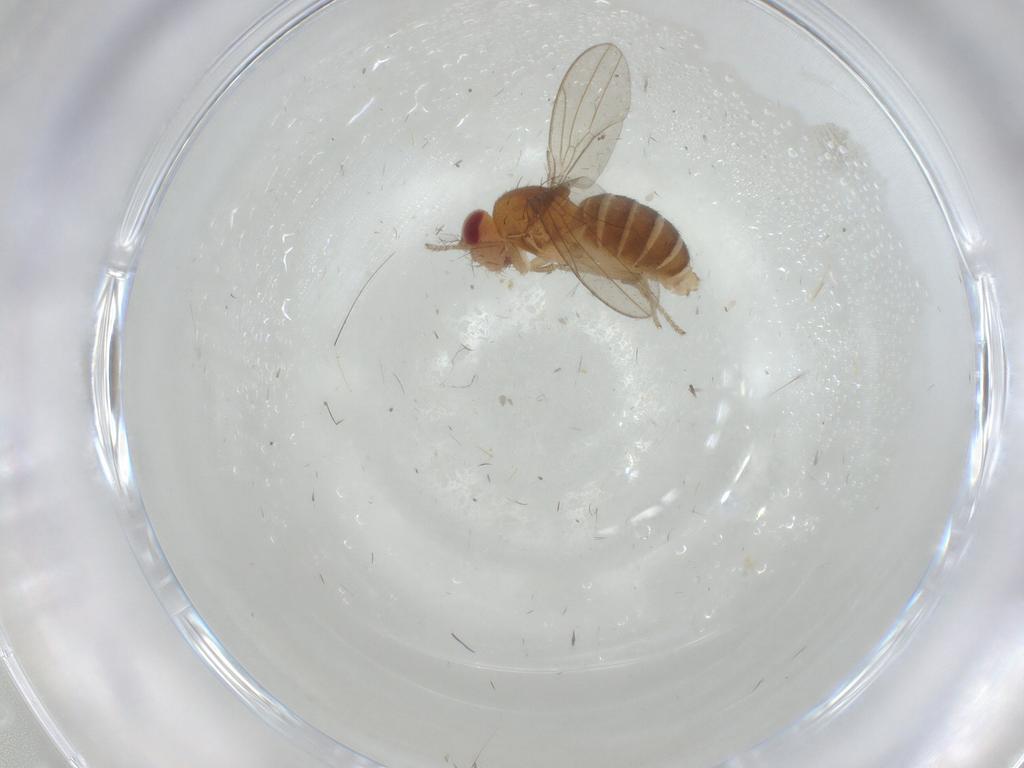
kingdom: Animalia
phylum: Arthropoda
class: Insecta
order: Diptera
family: Drosophilidae
